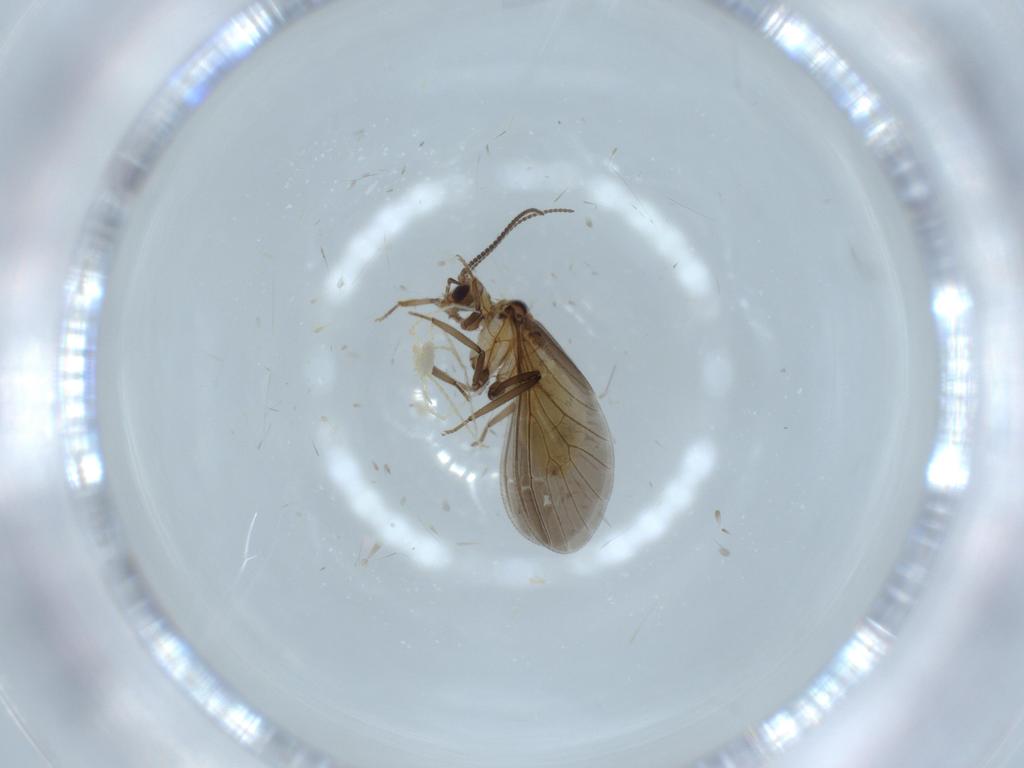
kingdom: Animalia
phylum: Arthropoda
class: Insecta
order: Neuroptera
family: Coniopterygidae
